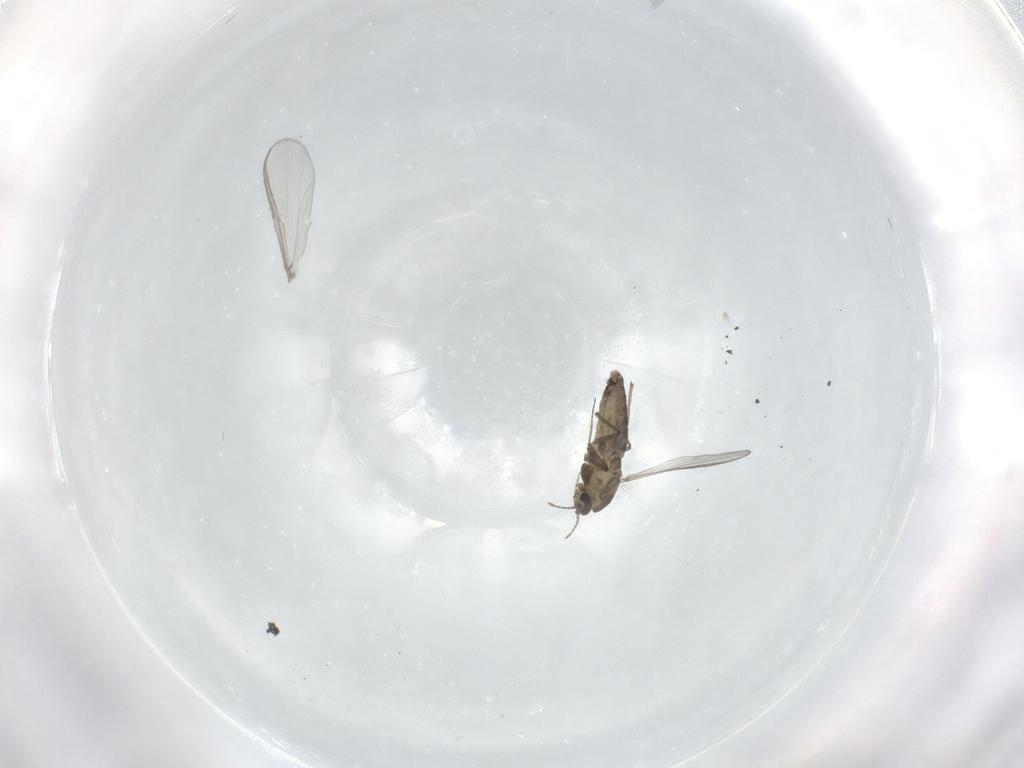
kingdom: Animalia
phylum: Arthropoda
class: Insecta
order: Diptera
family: Chironomidae
